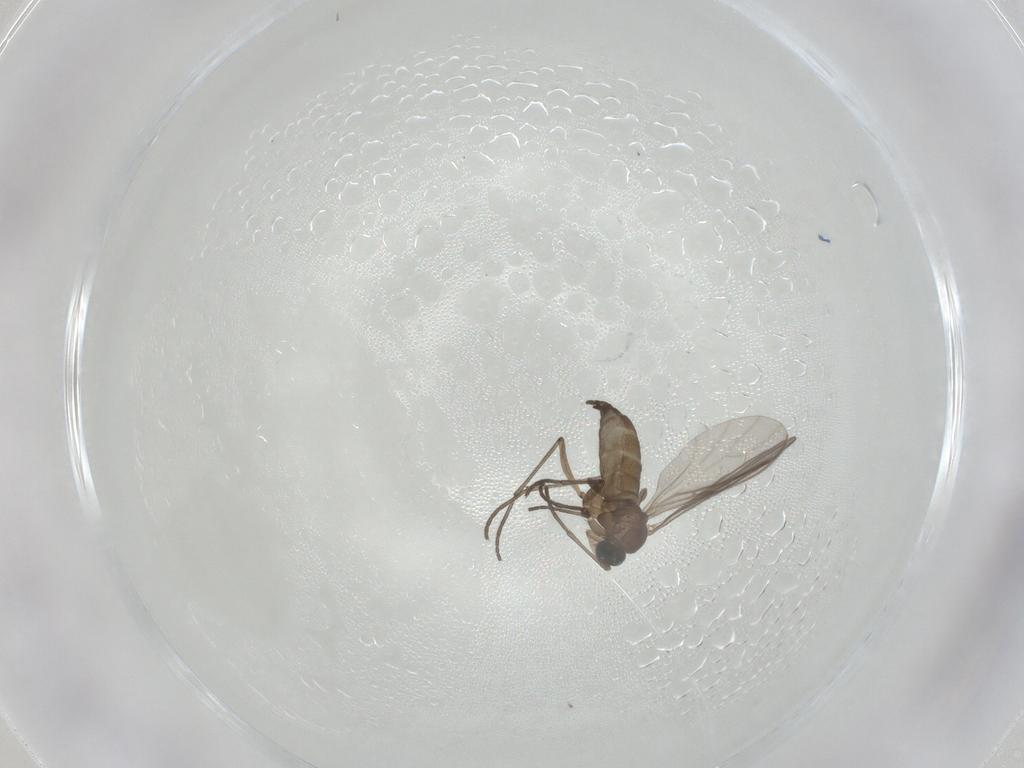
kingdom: Animalia
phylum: Arthropoda
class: Insecta
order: Diptera
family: Sciaridae
